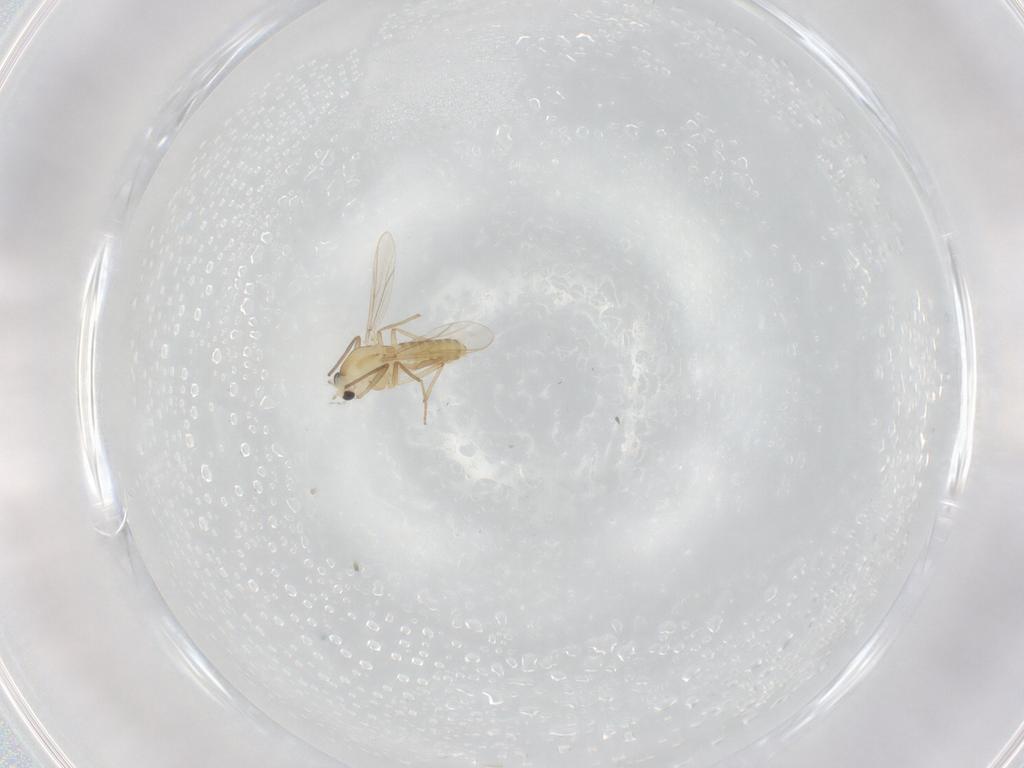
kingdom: Animalia
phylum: Arthropoda
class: Insecta
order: Diptera
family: Chironomidae
